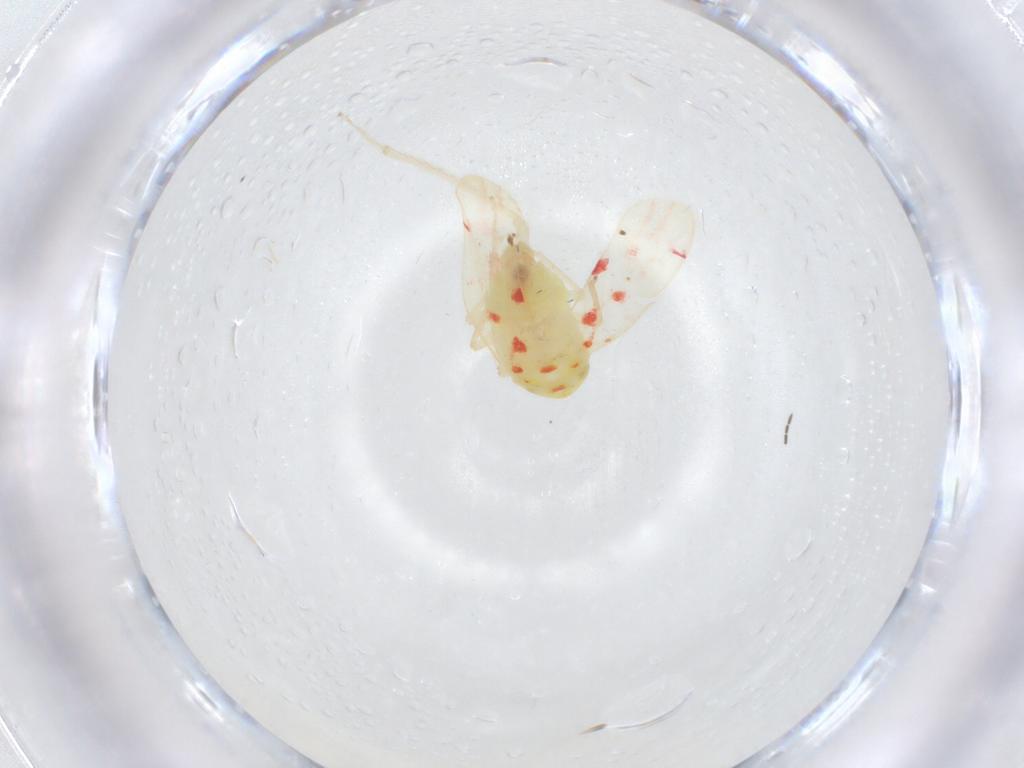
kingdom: Animalia
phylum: Arthropoda
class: Insecta
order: Hemiptera
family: Cicadellidae
